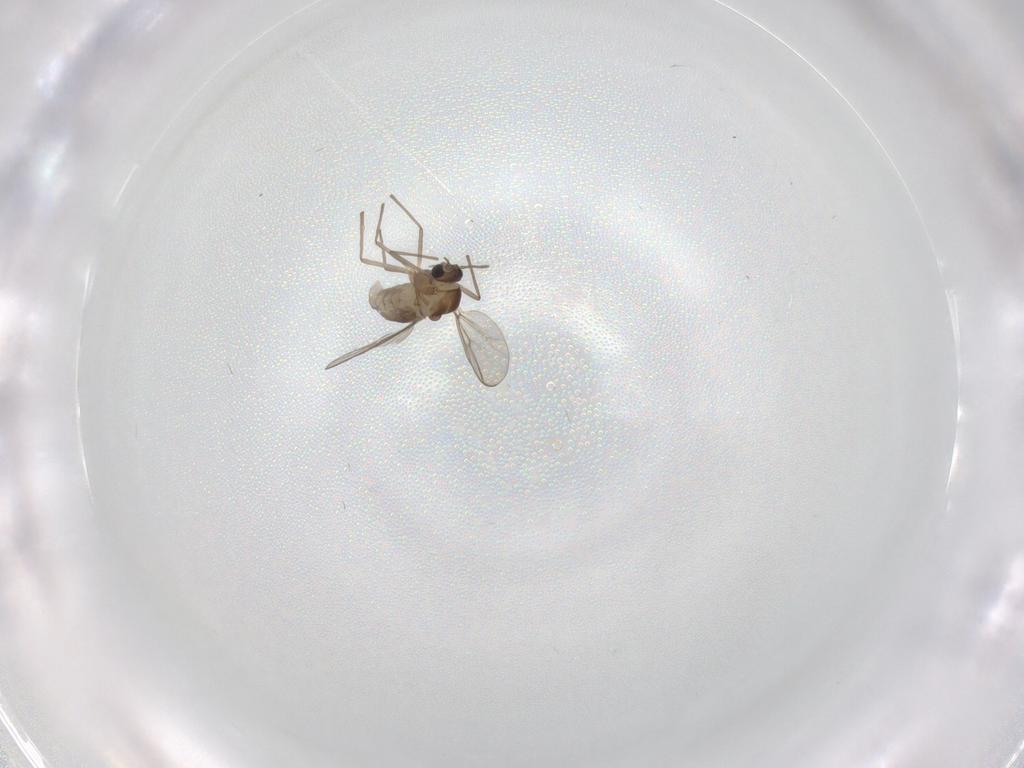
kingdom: Animalia
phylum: Arthropoda
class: Insecta
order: Diptera
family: Chironomidae
